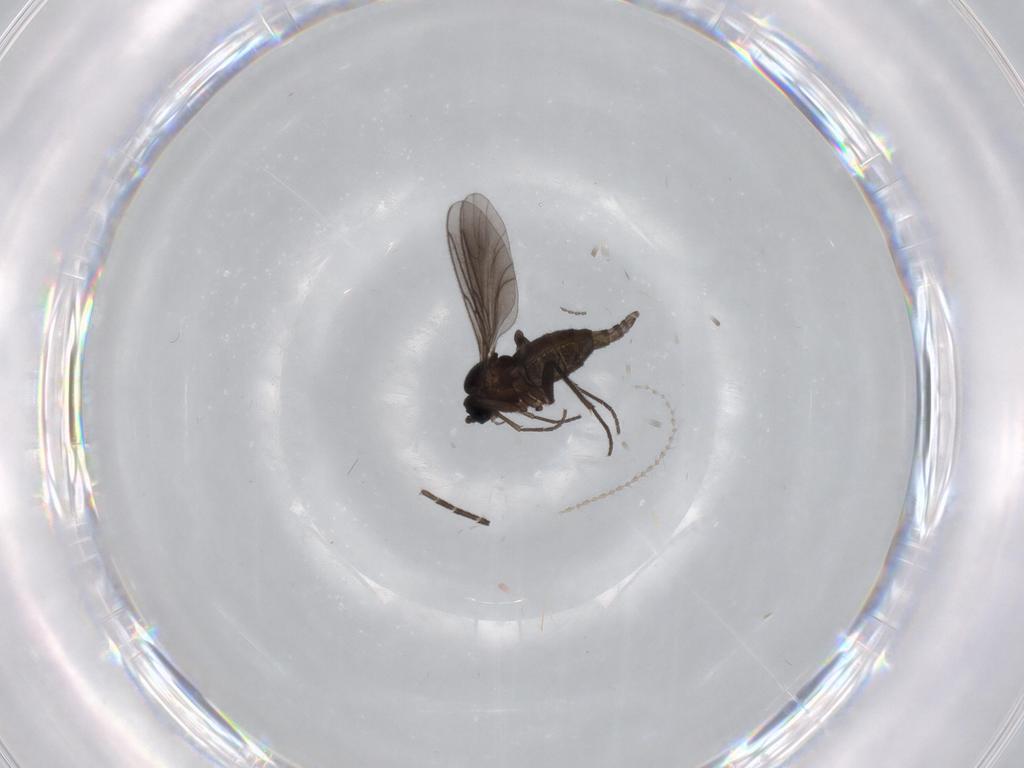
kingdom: Animalia
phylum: Arthropoda
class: Insecta
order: Diptera
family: Sciaridae
